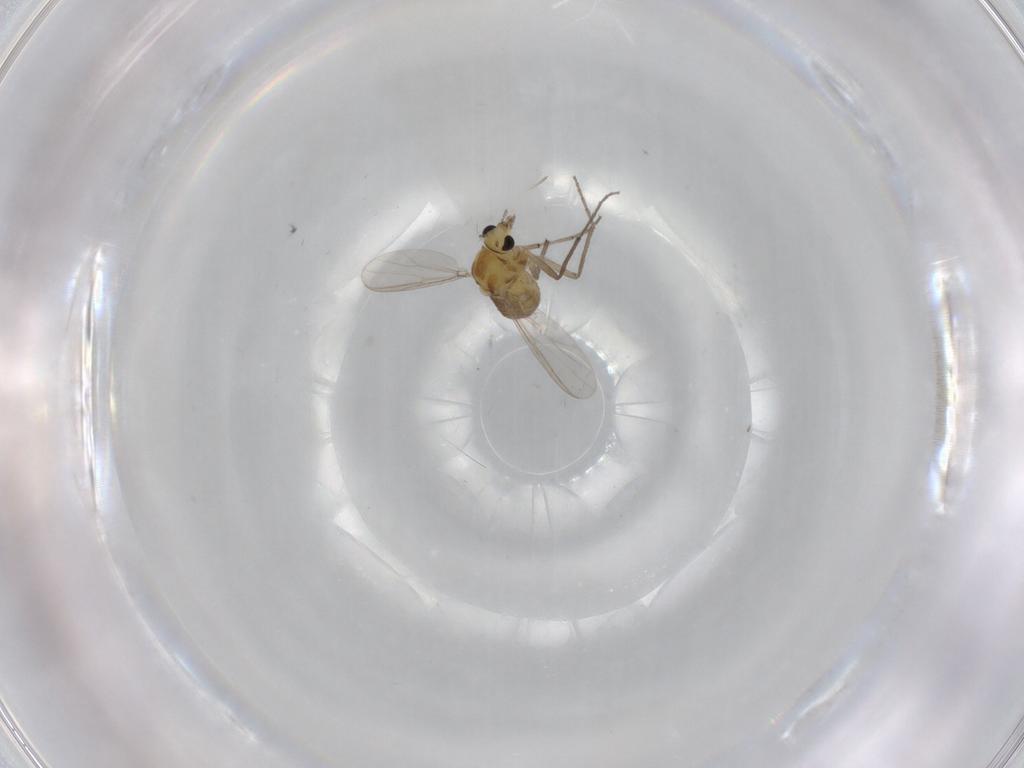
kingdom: Animalia
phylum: Arthropoda
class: Insecta
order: Diptera
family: Chironomidae
